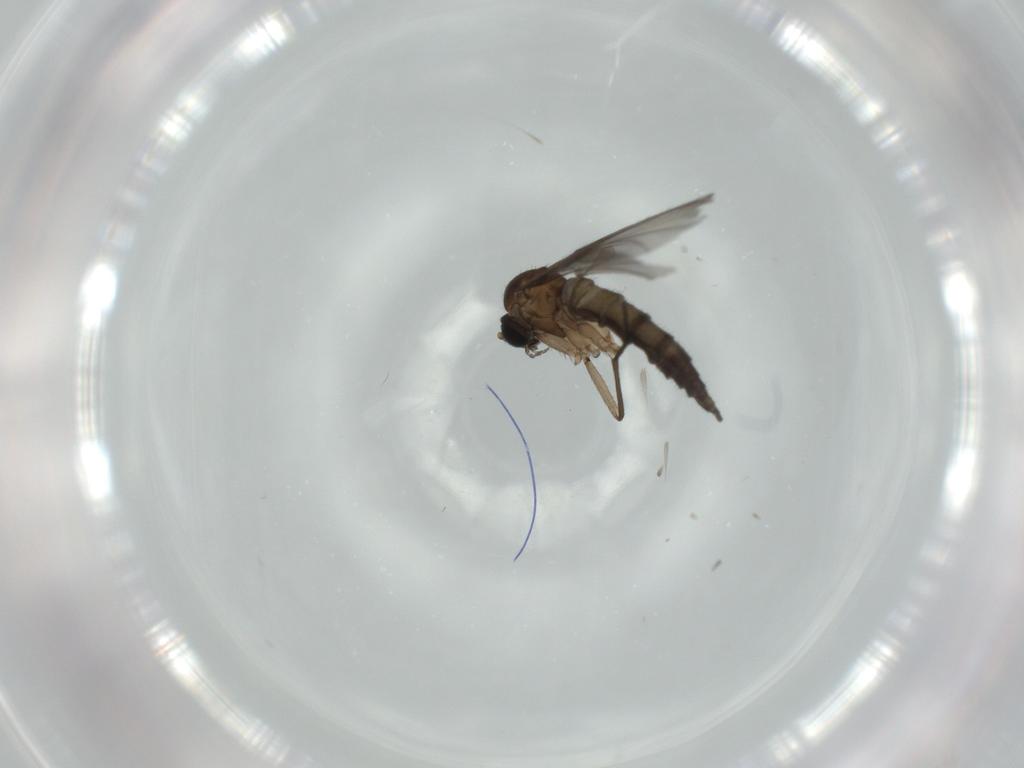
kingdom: Animalia
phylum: Arthropoda
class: Insecta
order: Diptera
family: Sciaridae
